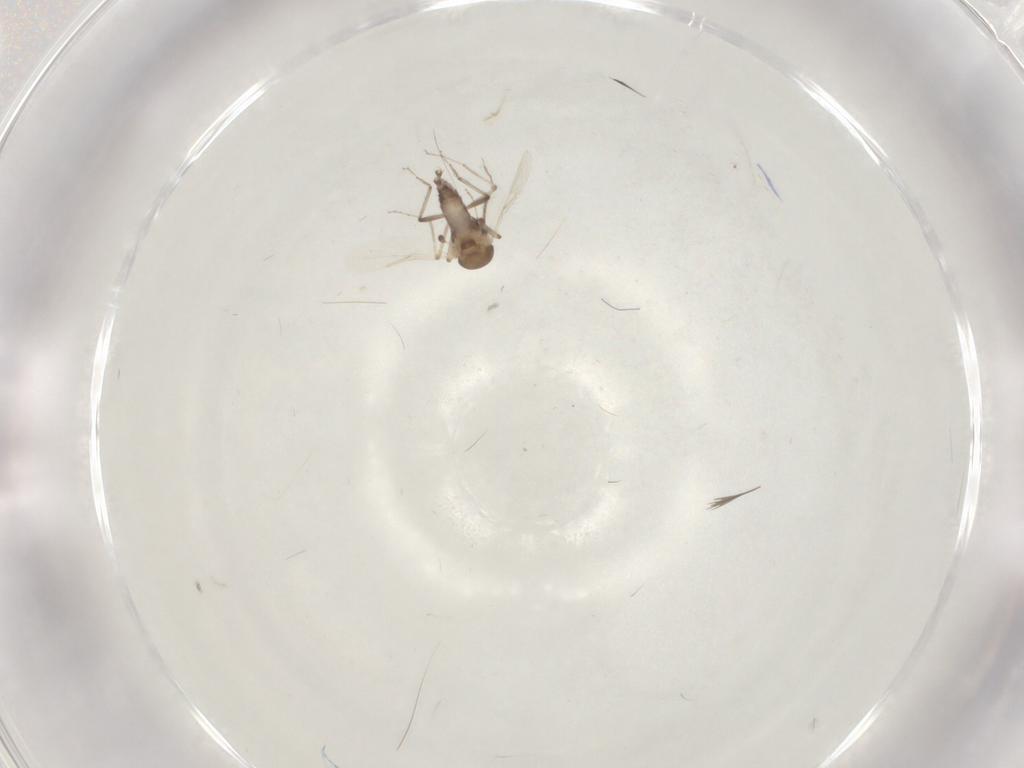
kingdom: Animalia
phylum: Arthropoda
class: Insecta
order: Diptera
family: Ceratopogonidae
